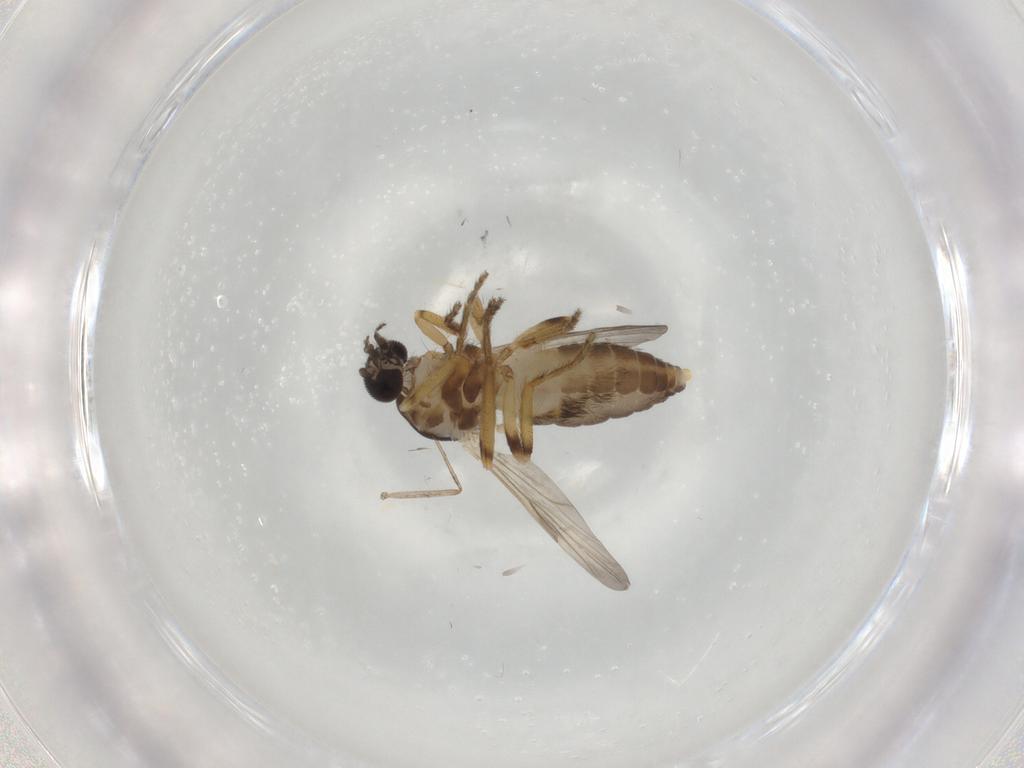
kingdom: Animalia
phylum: Arthropoda
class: Insecta
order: Diptera
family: Ceratopogonidae
